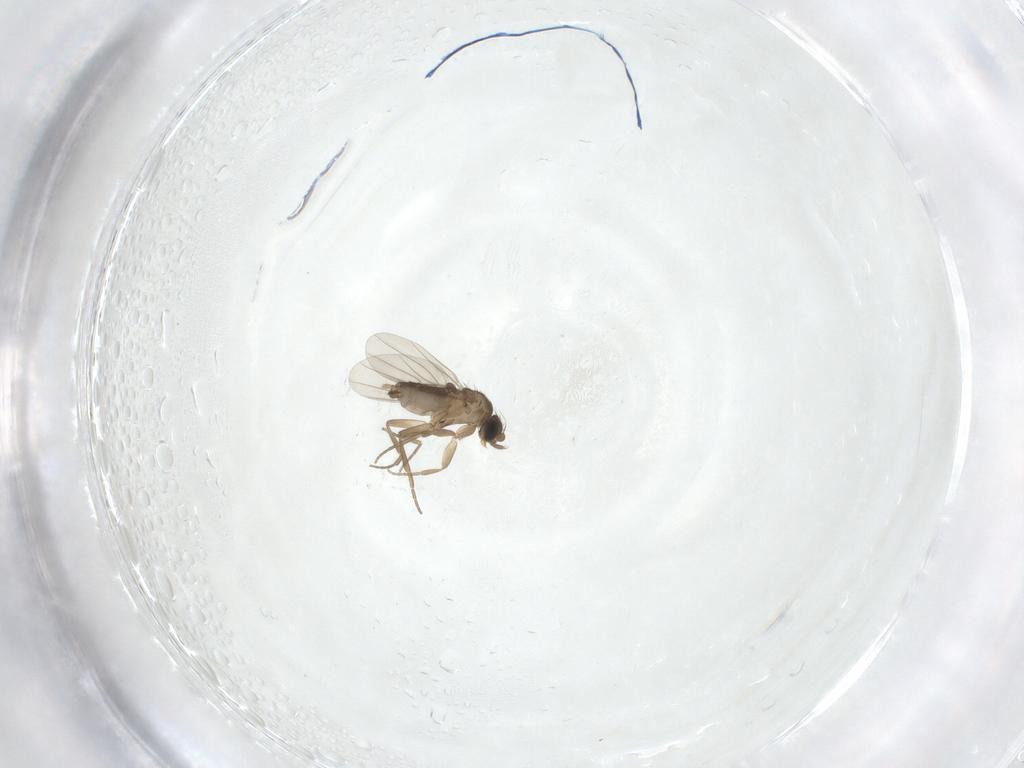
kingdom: Animalia
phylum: Arthropoda
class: Insecta
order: Diptera
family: Phoridae
